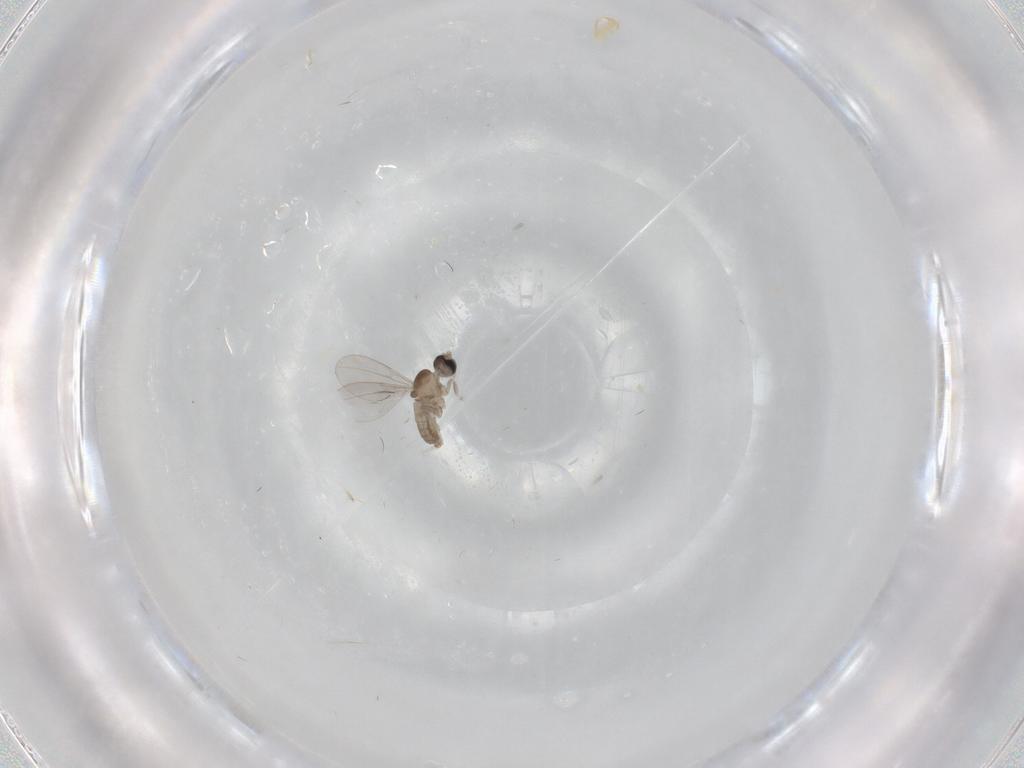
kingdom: Animalia
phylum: Arthropoda
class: Insecta
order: Diptera
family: Cecidomyiidae
